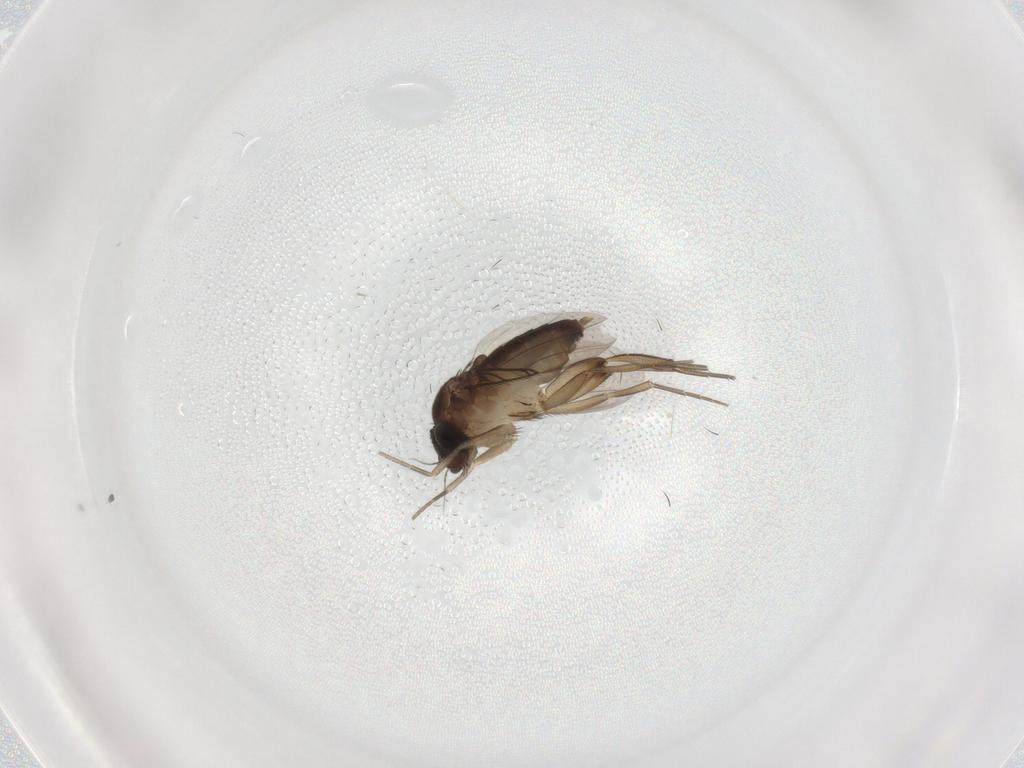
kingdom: Animalia
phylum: Arthropoda
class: Insecta
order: Diptera
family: Phoridae
